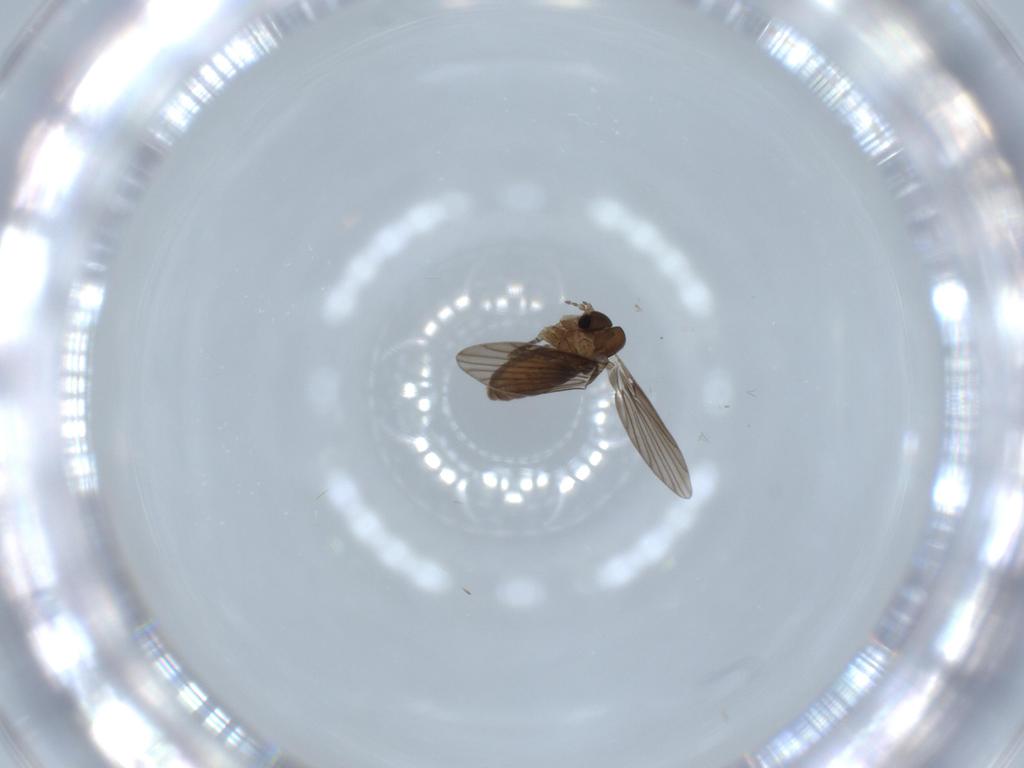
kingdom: Animalia
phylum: Arthropoda
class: Insecta
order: Diptera
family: Psychodidae
